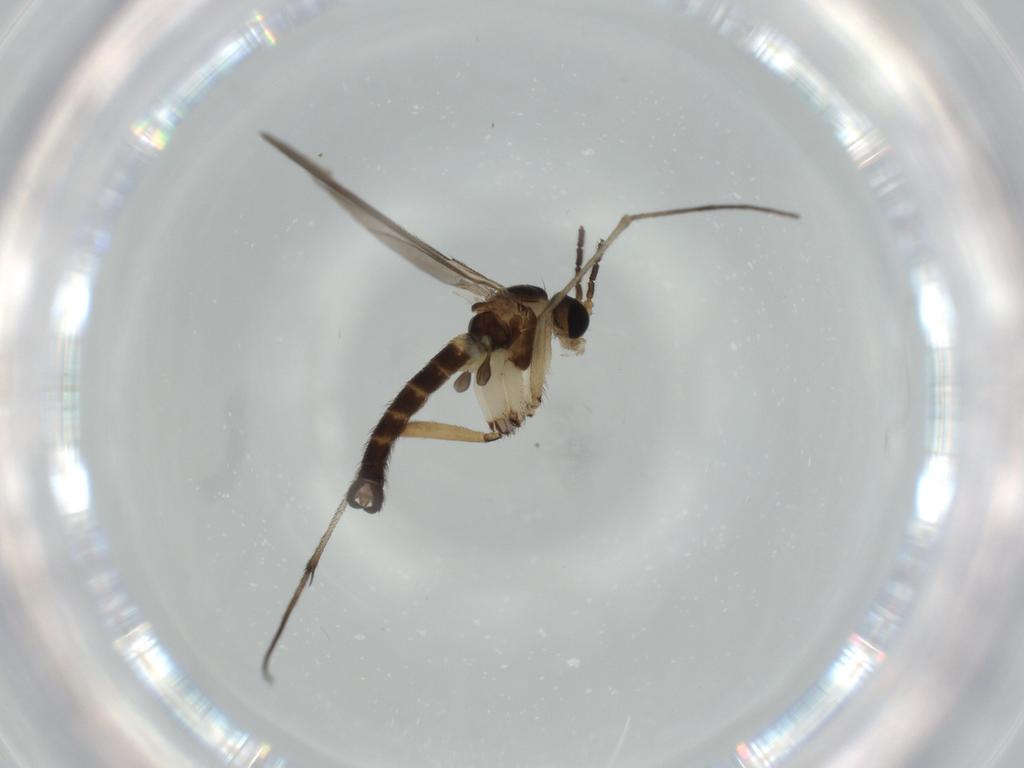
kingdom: Animalia
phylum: Arthropoda
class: Insecta
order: Diptera
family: Sciaridae
